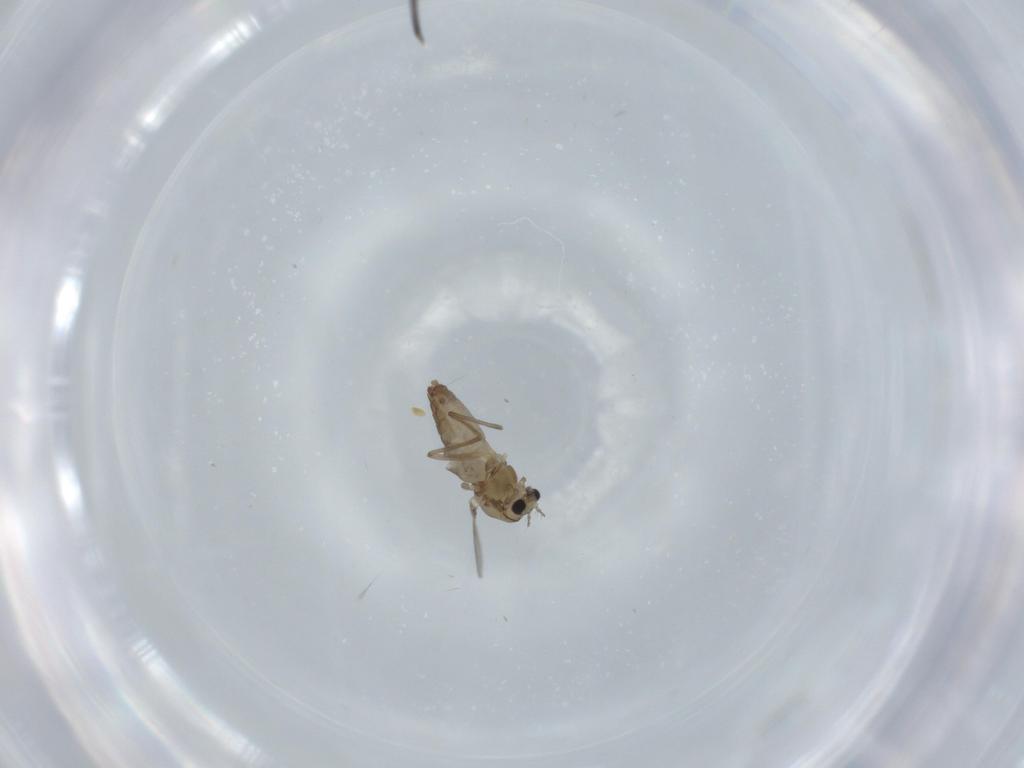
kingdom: Animalia
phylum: Arthropoda
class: Insecta
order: Diptera
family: Chironomidae
